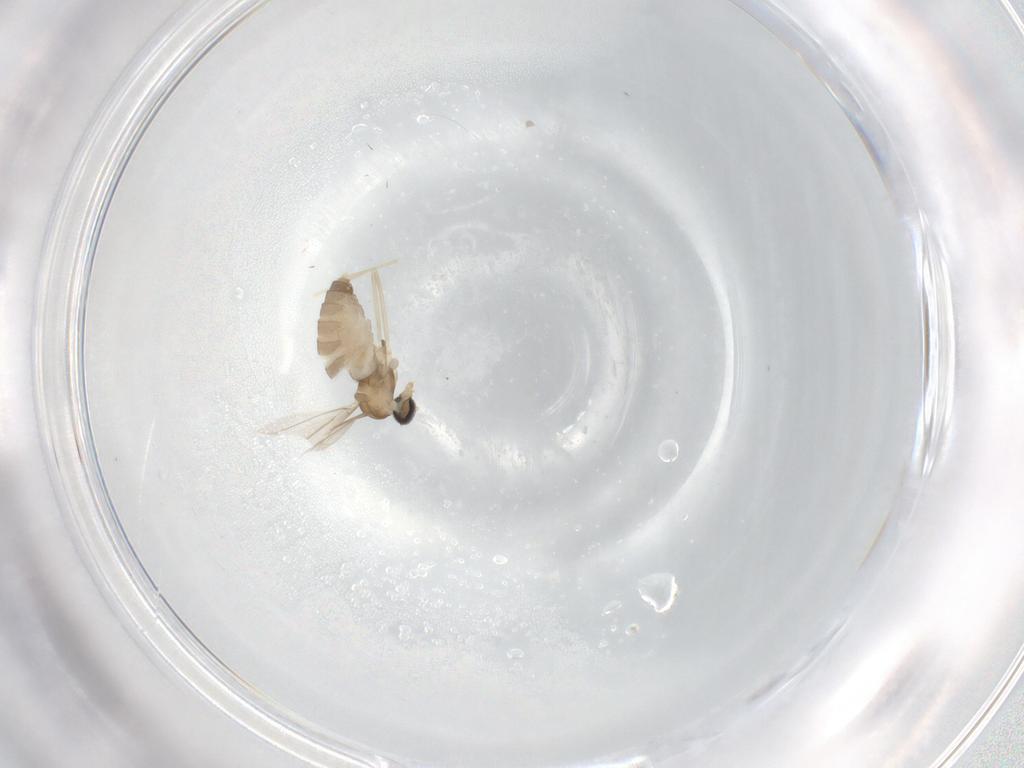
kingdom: Animalia
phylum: Arthropoda
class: Insecta
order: Diptera
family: Cecidomyiidae
